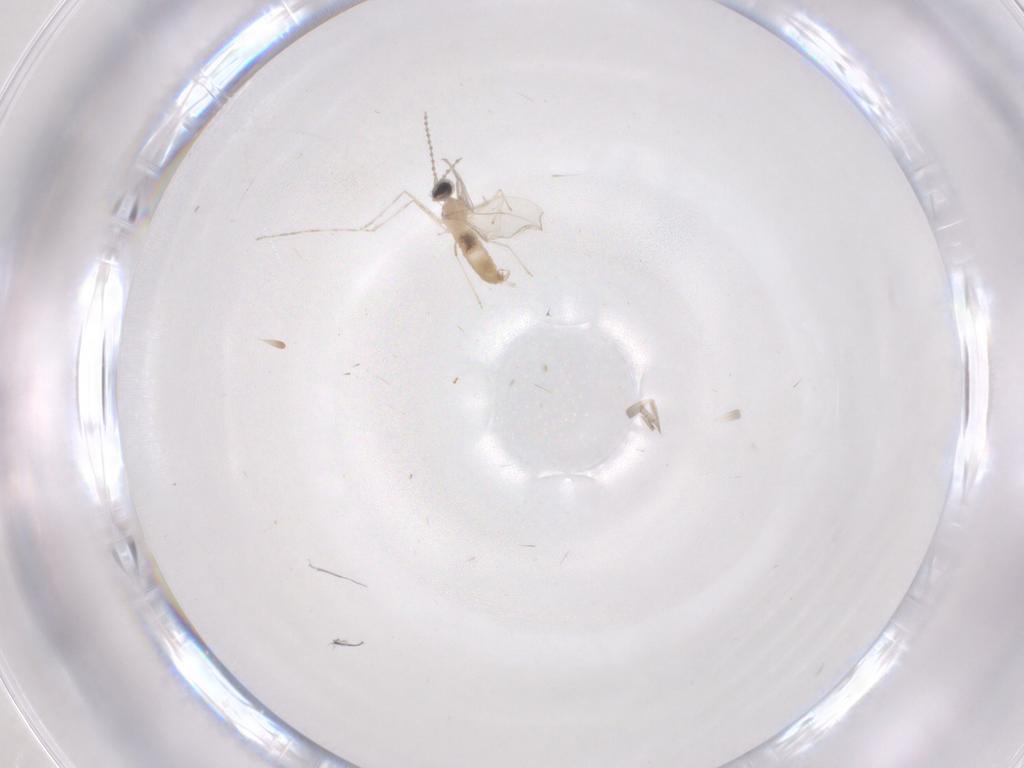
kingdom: Animalia
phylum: Arthropoda
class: Insecta
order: Diptera
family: Cecidomyiidae
